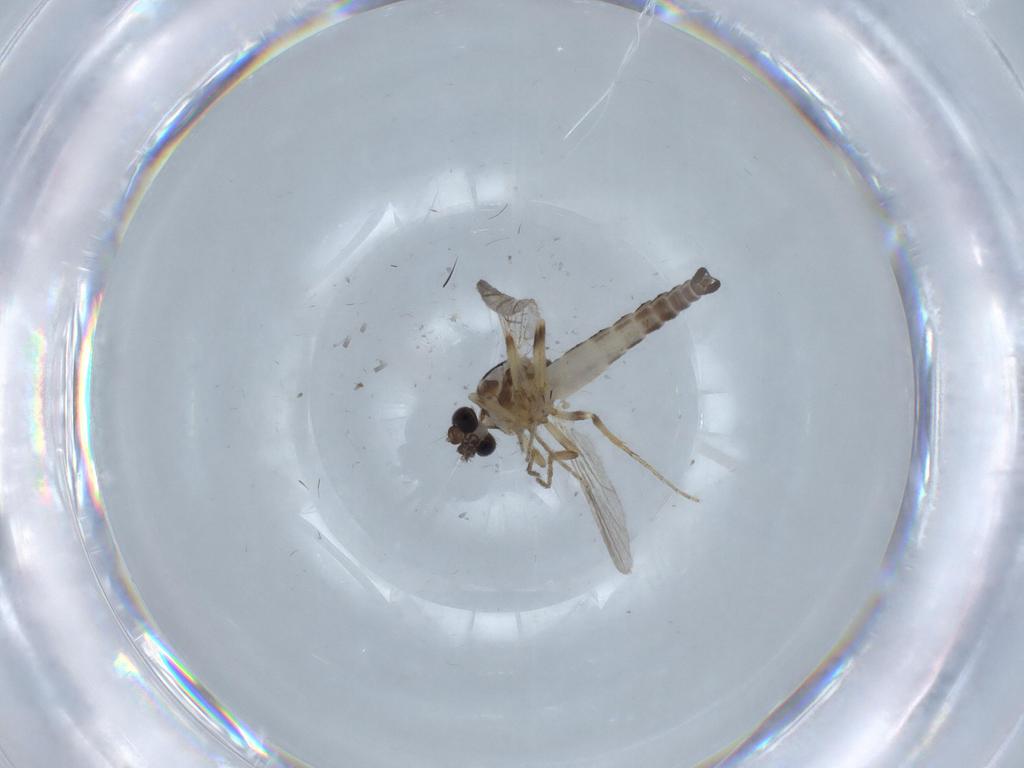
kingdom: Animalia
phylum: Arthropoda
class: Insecta
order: Diptera
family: Ceratopogonidae
